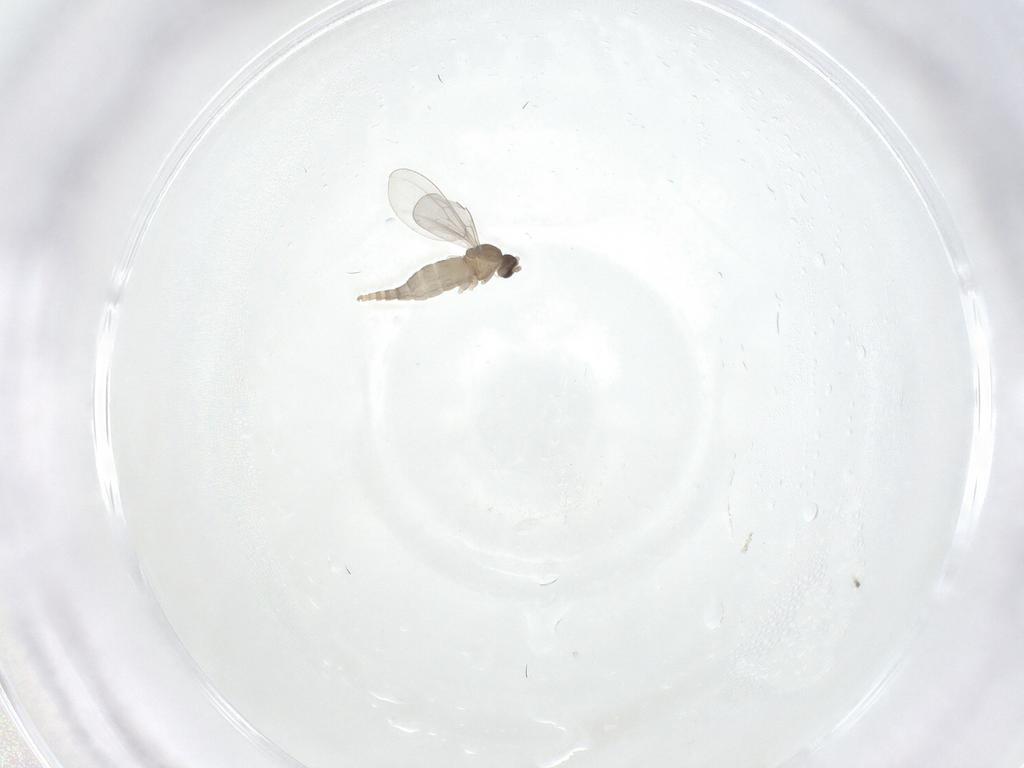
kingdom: Animalia
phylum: Arthropoda
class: Insecta
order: Diptera
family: Cecidomyiidae
